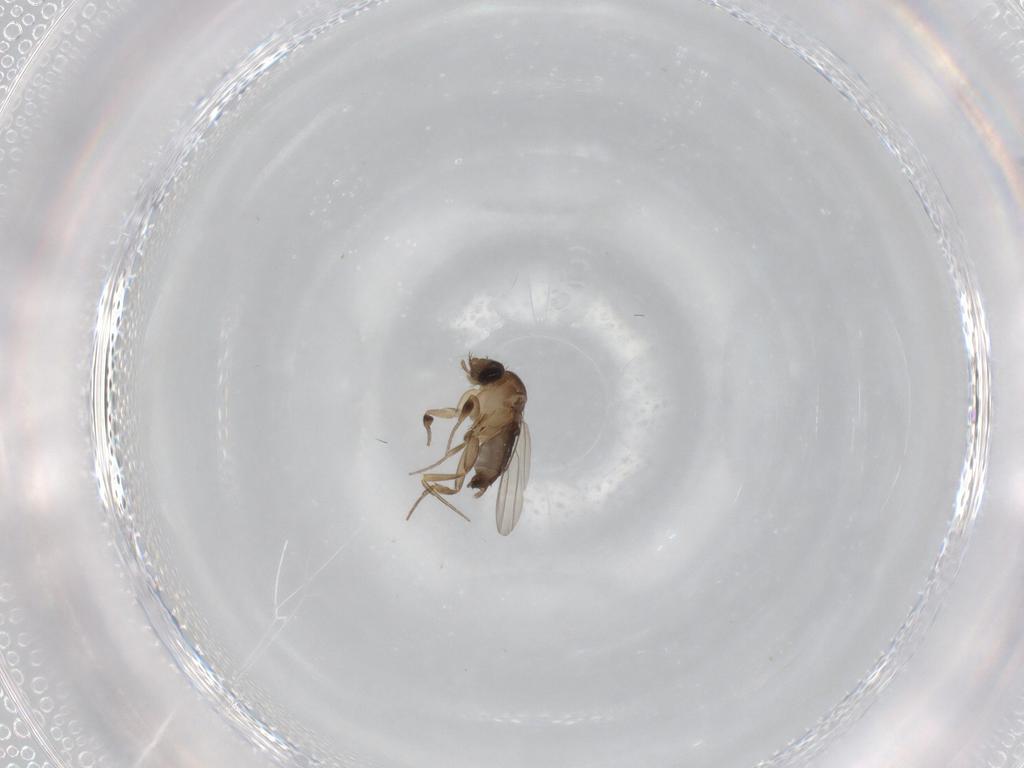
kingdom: Animalia
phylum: Arthropoda
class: Insecta
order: Diptera
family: Phoridae
